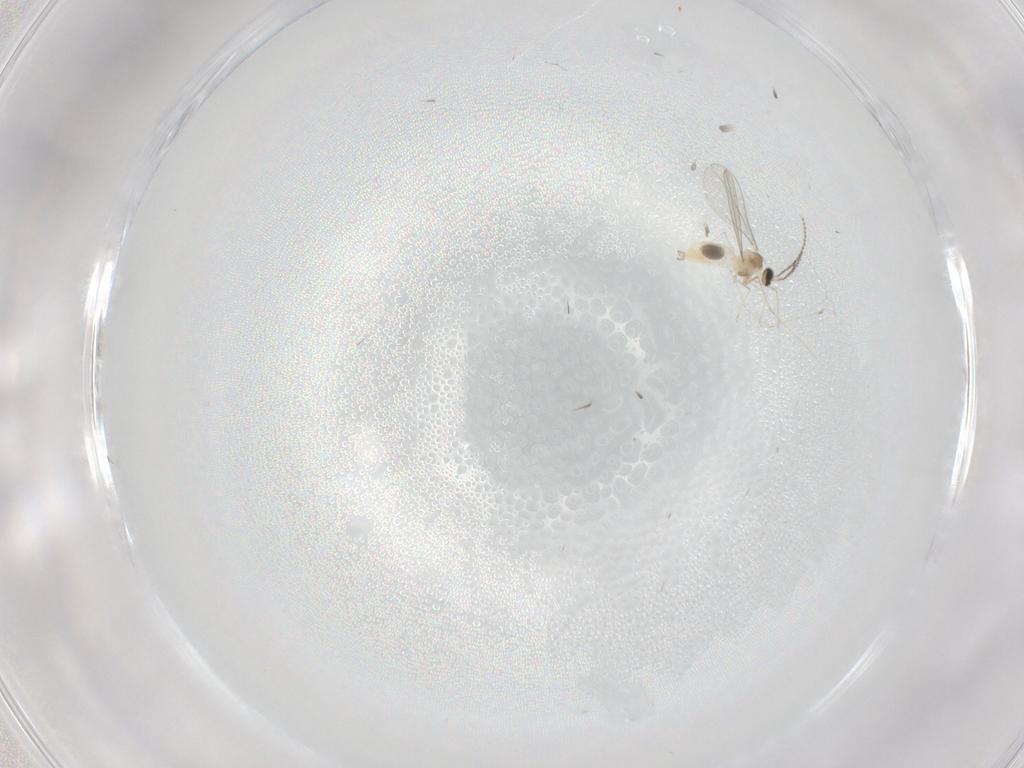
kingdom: Animalia
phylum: Arthropoda
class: Insecta
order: Diptera
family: Cecidomyiidae
